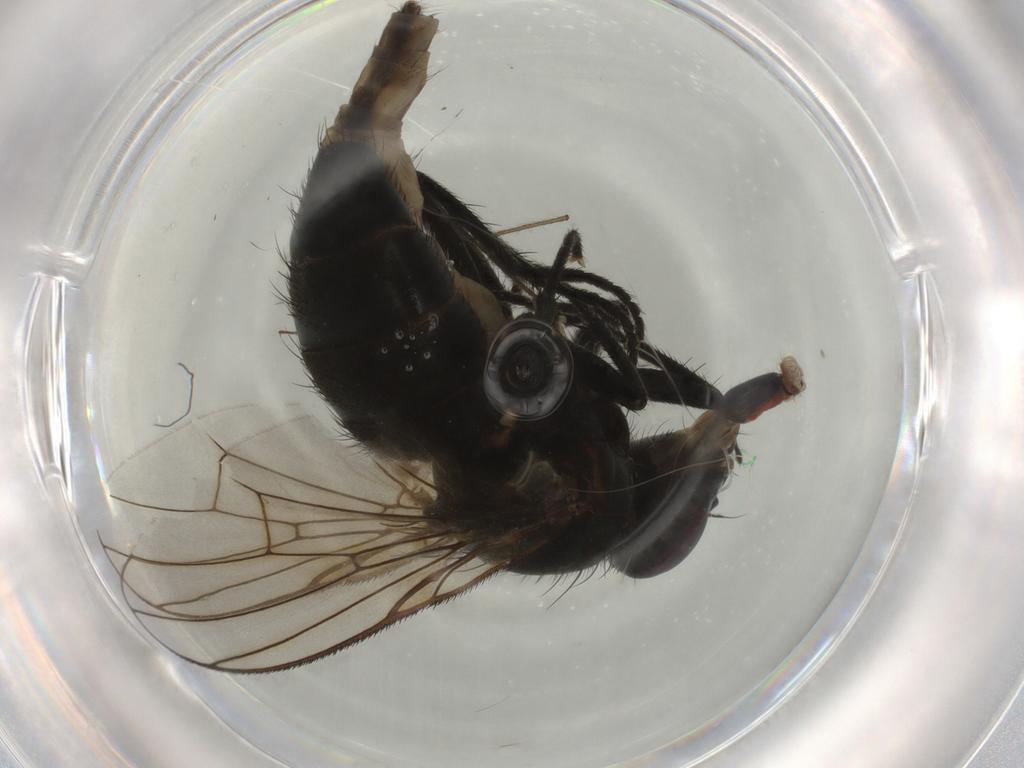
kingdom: Animalia
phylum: Arthropoda
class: Insecta
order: Diptera
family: Muscidae
